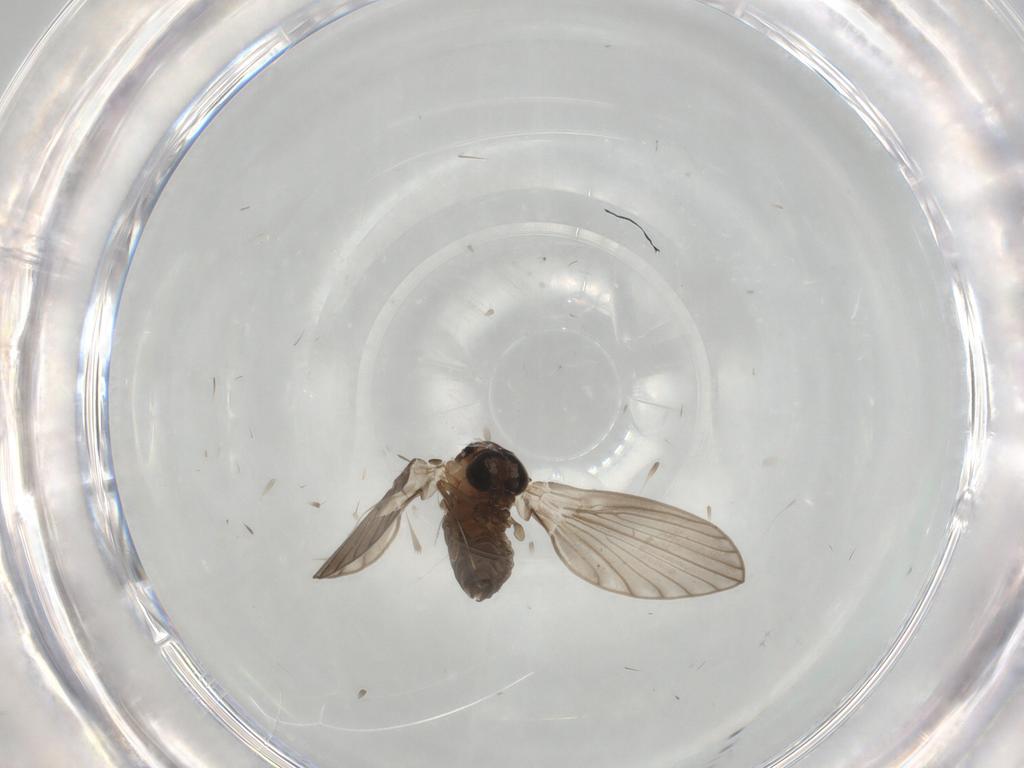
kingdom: Animalia
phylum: Arthropoda
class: Insecta
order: Diptera
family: Psychodidae
